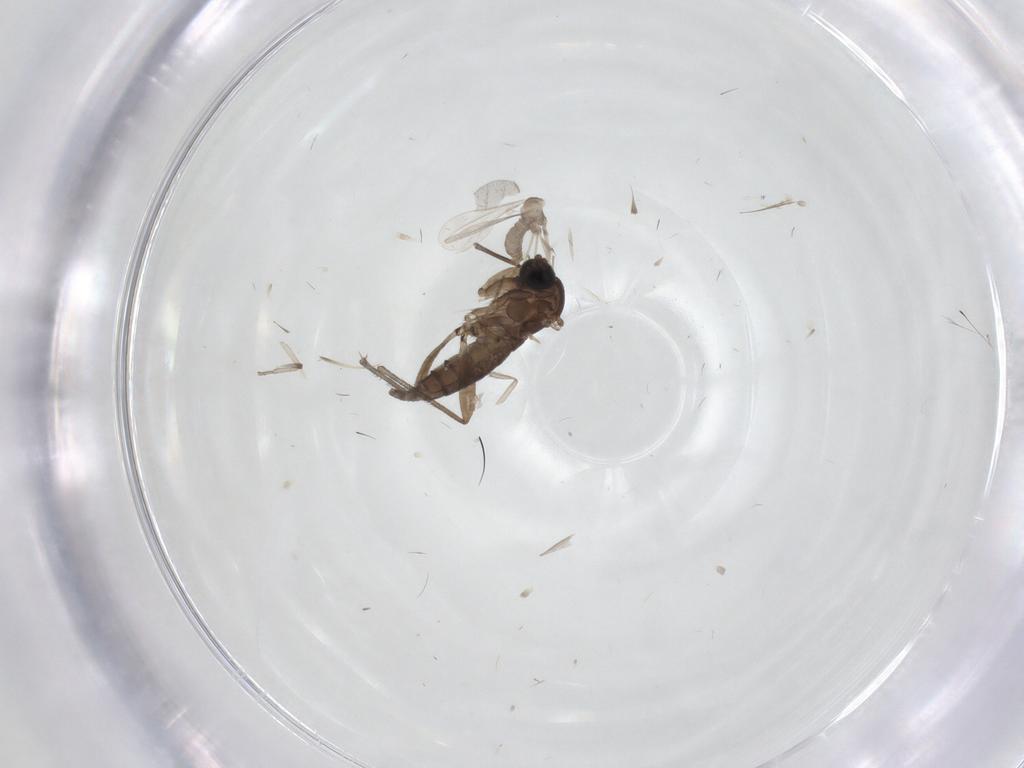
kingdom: Animalia
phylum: Arthropoda
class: Insecta
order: Diptera
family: Cecidomyiidae
